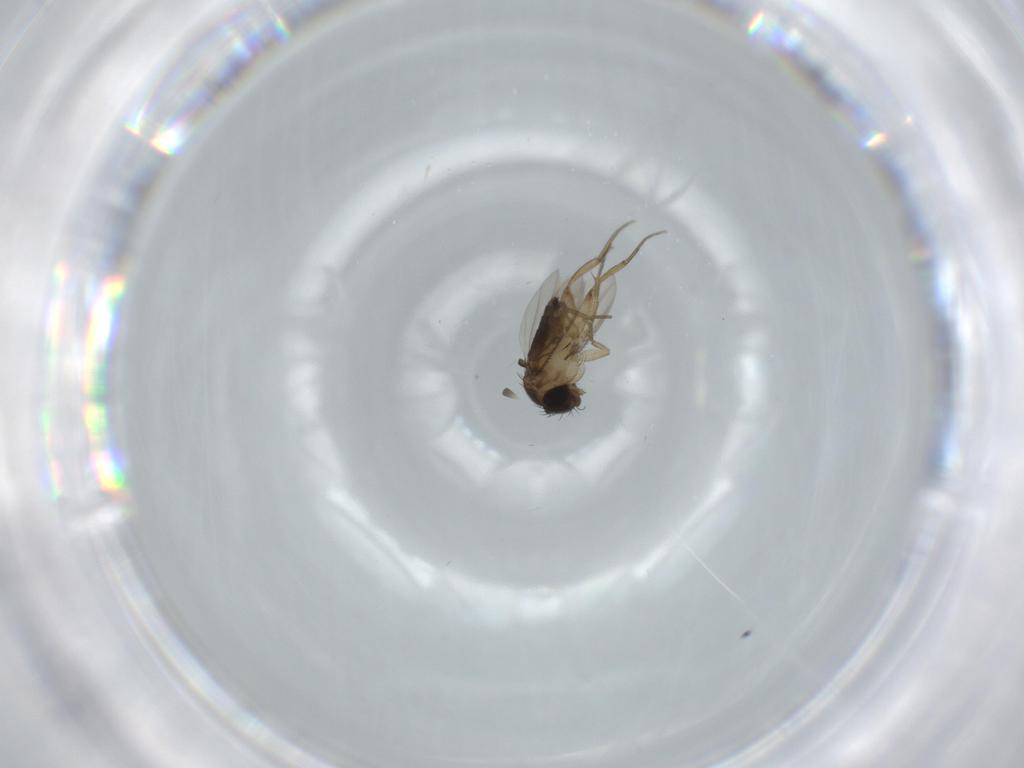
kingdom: Animalia
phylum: Arthropoda
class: Insecta
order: Diptera
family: Phoridae
